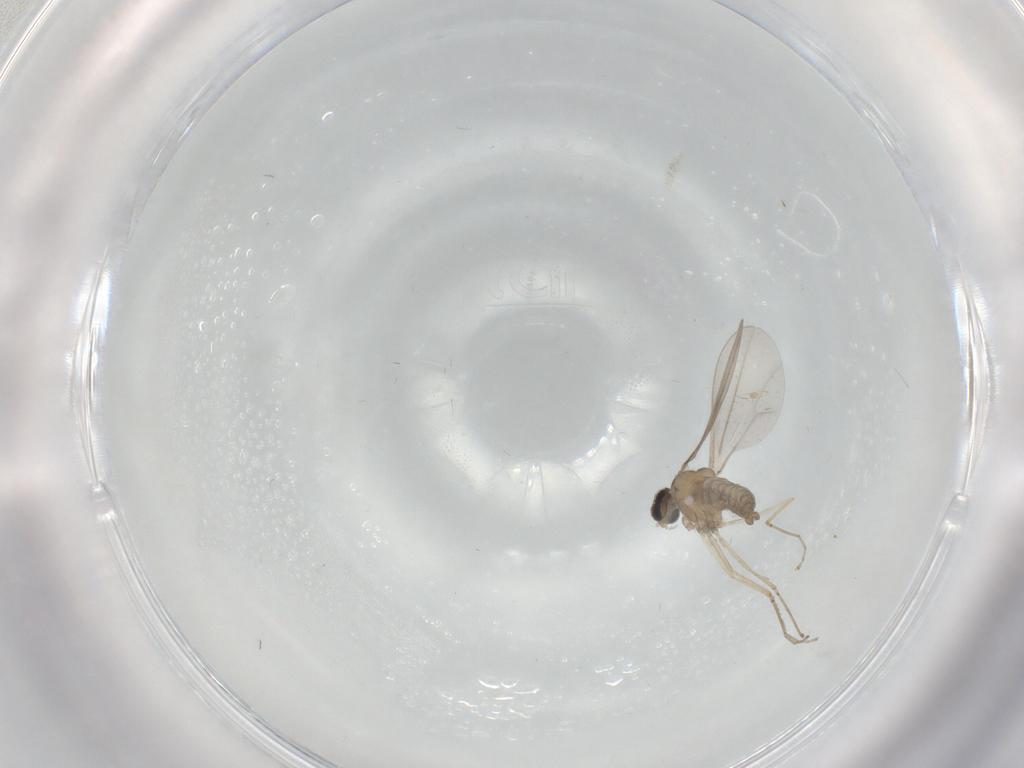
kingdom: Animalia
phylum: Arthropoda
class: Insecta
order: Diptera
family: Cecidomyiidae
